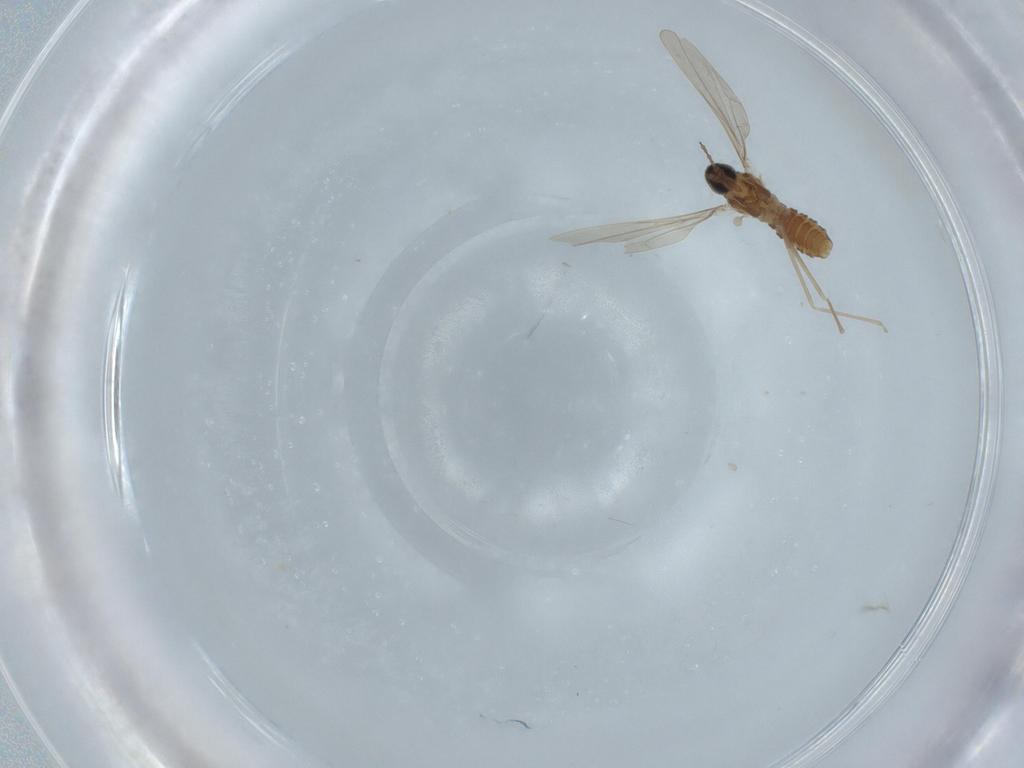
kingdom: Animalia
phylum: Arthropoda
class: Insecta
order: Diptera
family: Cecidomyiidae
